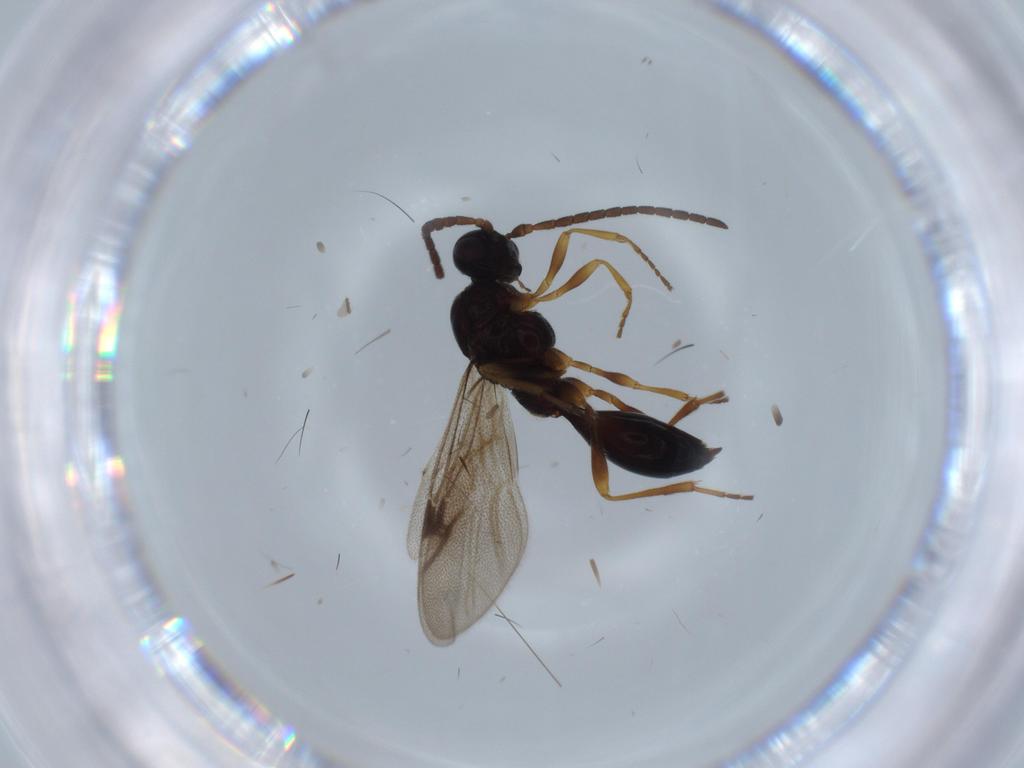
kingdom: Animalia
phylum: Arthropoda
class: Insecta
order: Hymenoptera
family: Proctotrupidae
